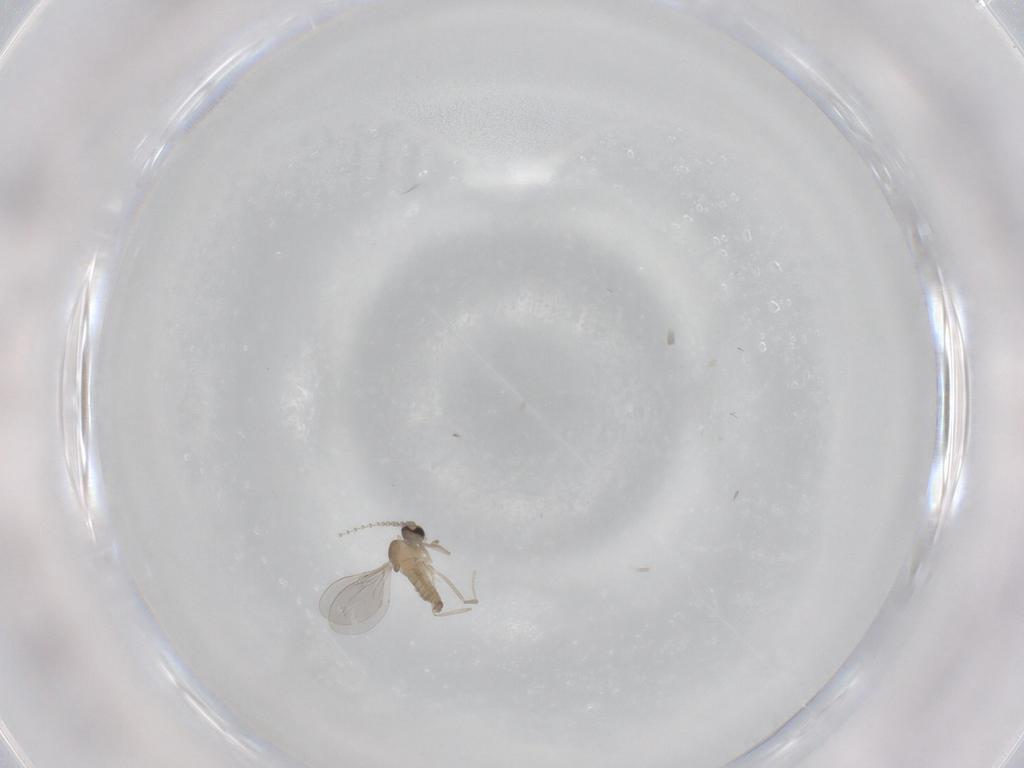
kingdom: Animalia
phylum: Arthropoda
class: Insecta
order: Diptera
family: Cecidomyiidae
